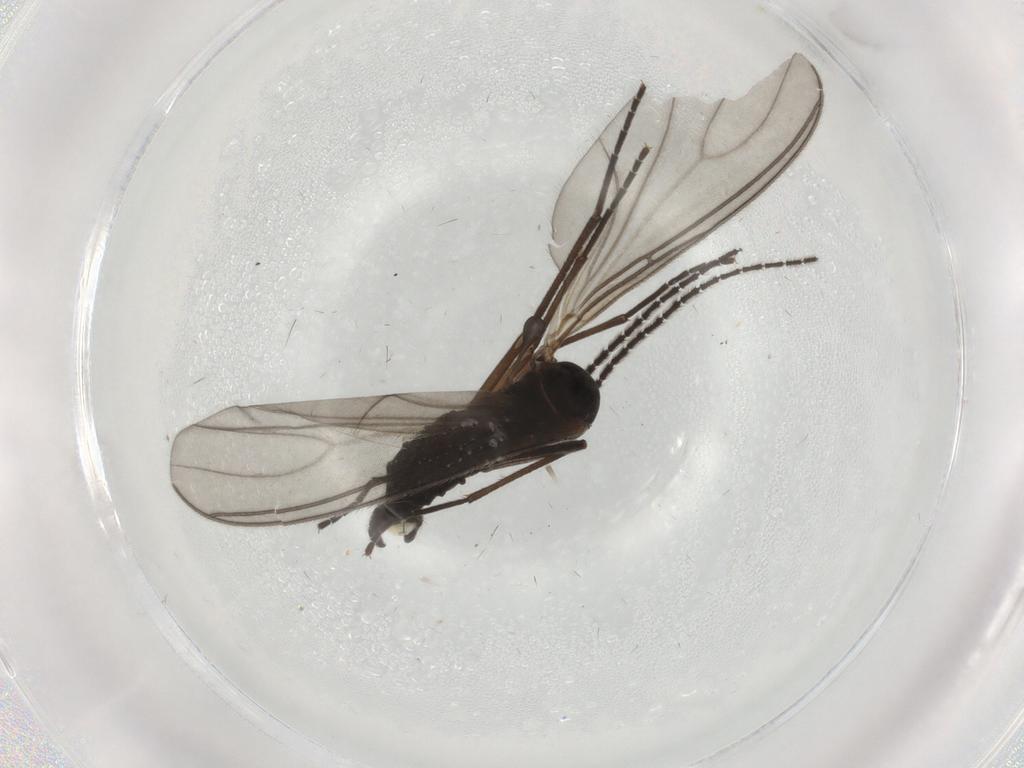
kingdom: Animalia
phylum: Arthropoda
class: Insecta
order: Diptera
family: Sciaridae
